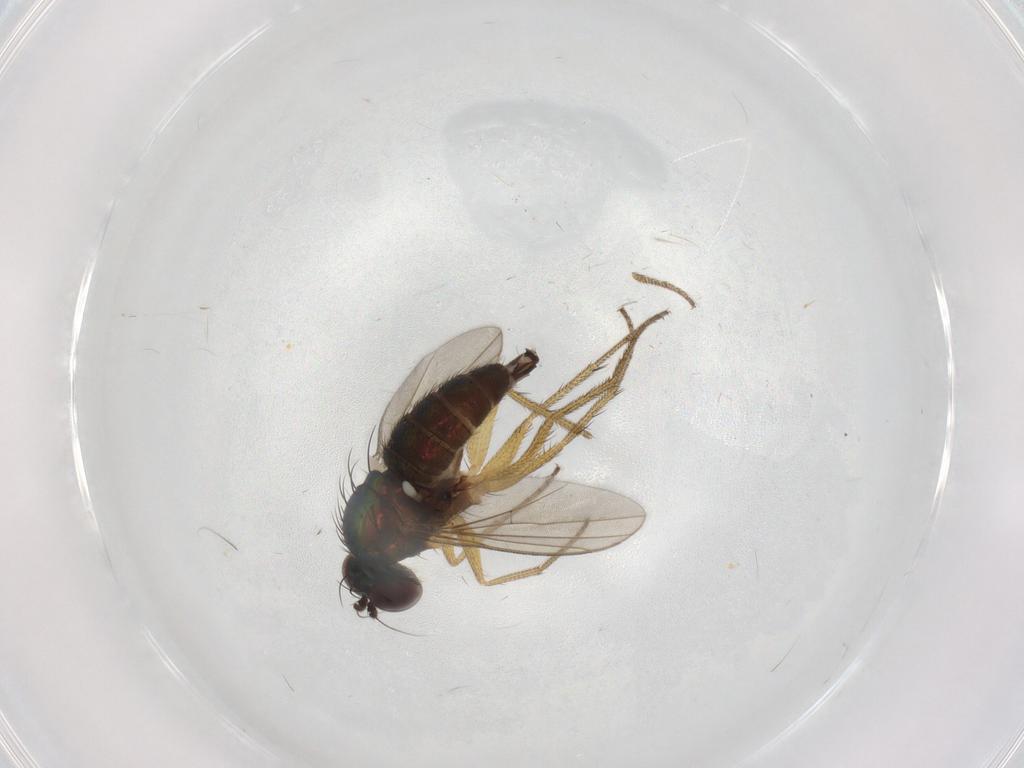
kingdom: Animalia
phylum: Arthropoda
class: Insecta
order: Diptera
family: Dolichopodidae
